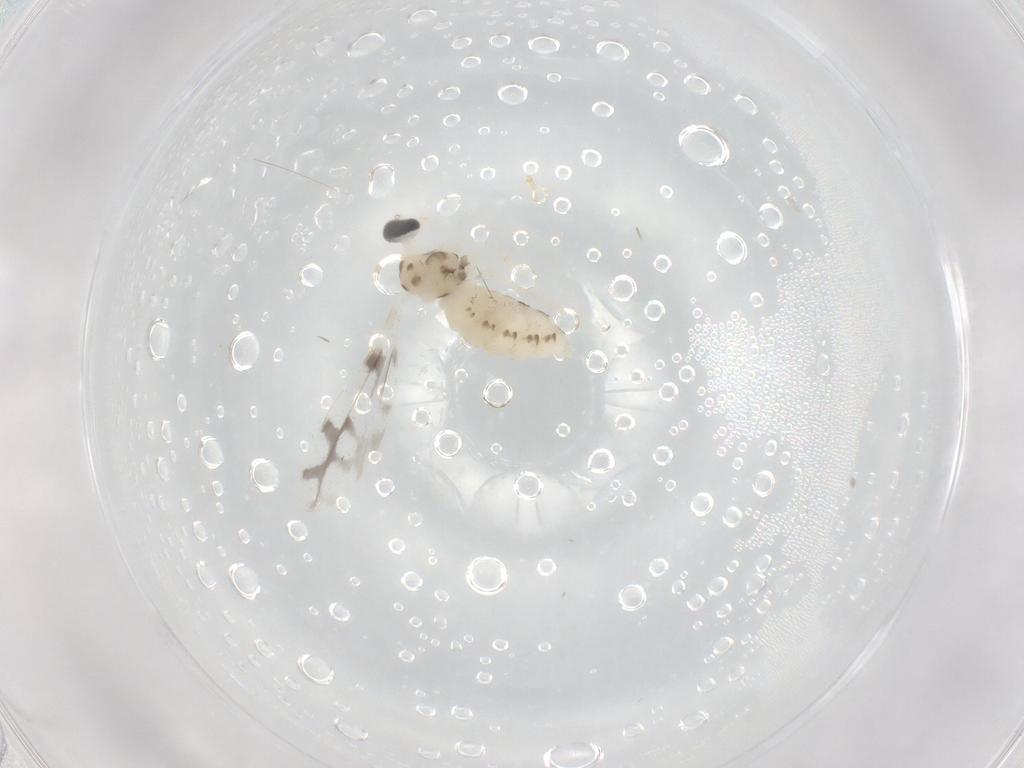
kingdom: Animalia
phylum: Arthropoda
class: Insecta
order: Diptera
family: Cecidomyiidae
